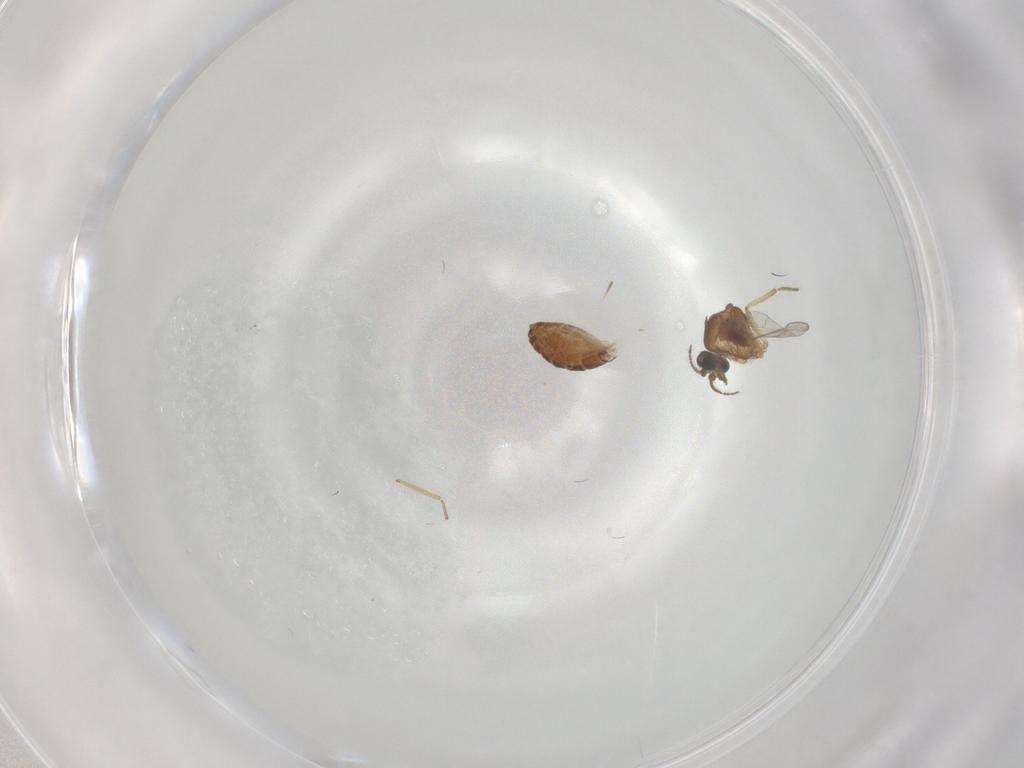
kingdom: Animalia
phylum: Arthropoda
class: Insecta
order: Diptera
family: Ceratopogonidae
